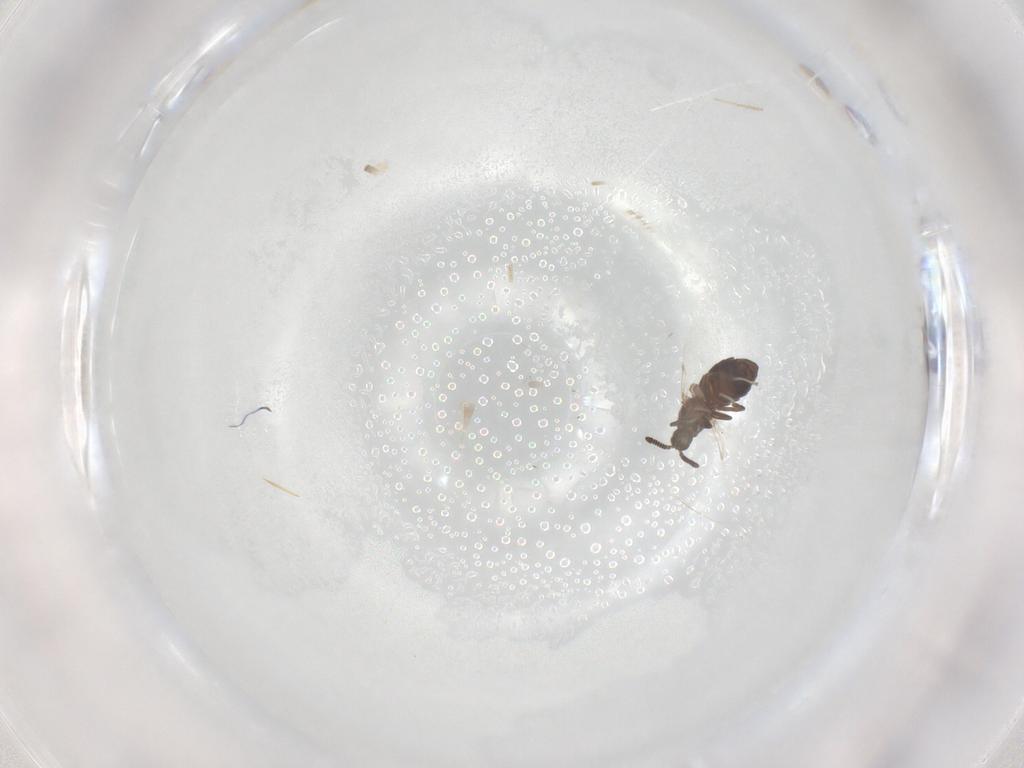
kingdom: Animalia
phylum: Arthropoda
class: Insecta
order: Diptera
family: Scatopsidae
